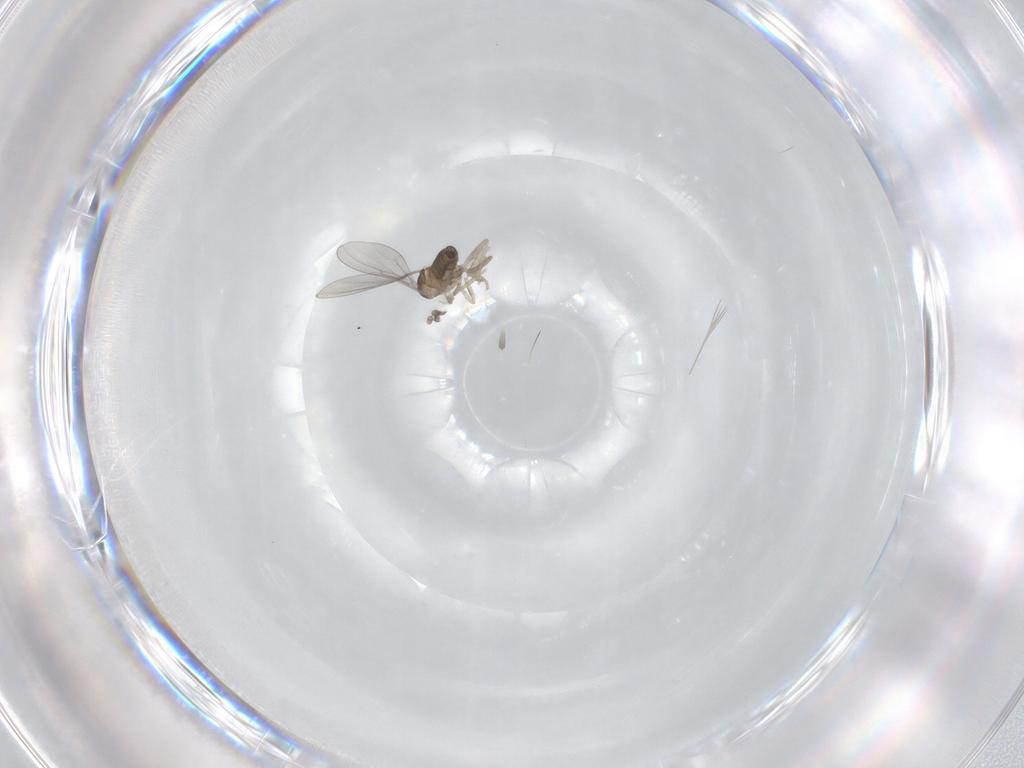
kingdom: Animalia
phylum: Arthropoda
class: Insecta
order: Diptera
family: Cecidomyiidae
